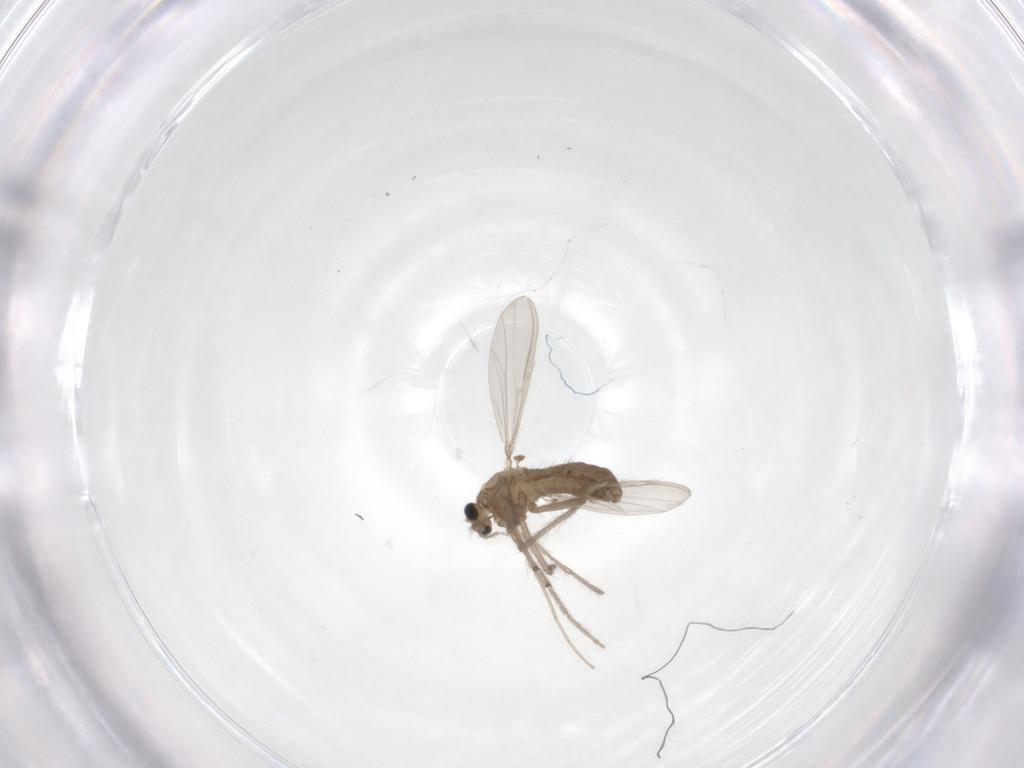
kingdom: Animalia
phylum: Arthropoda
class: Insecta
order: Diptera
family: Chironomidae
